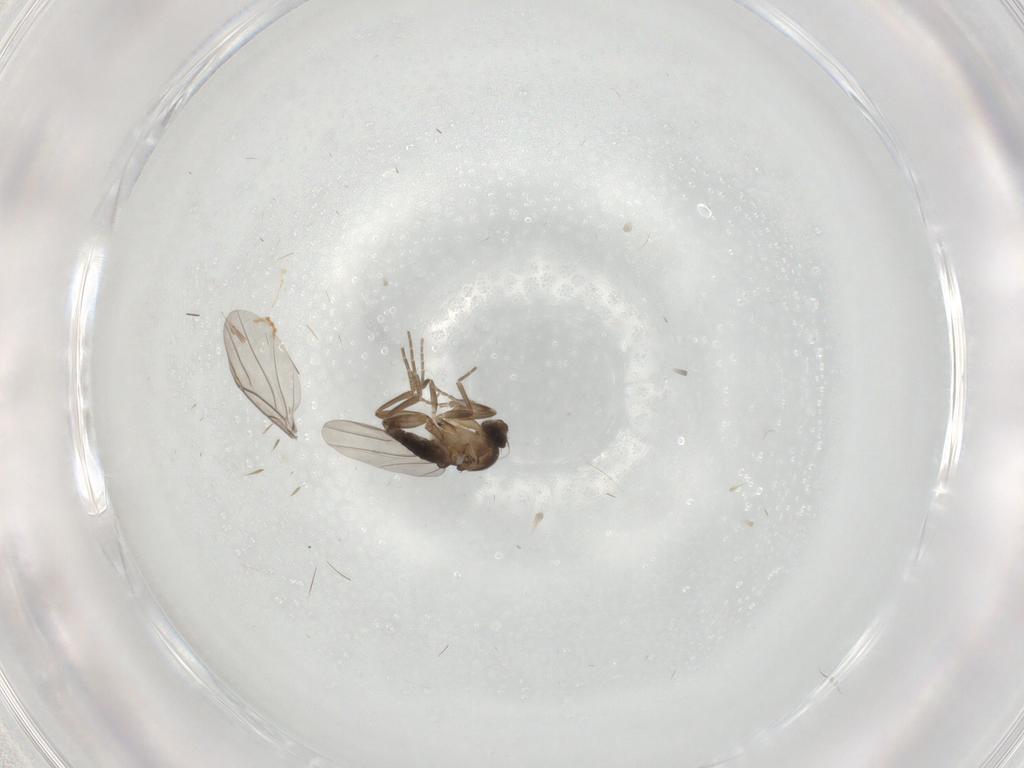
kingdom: Animalia
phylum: Arthropoda
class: Insecta
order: Diptera
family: Phoridae
